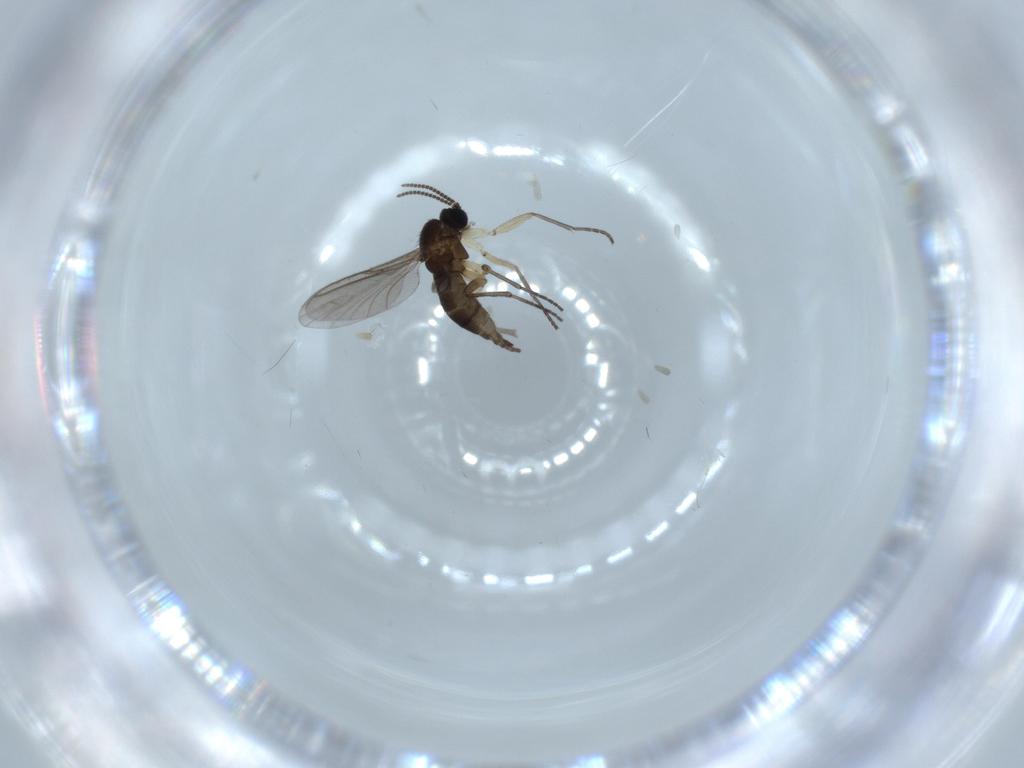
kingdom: Animalia
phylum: Arthropoda
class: Insecta
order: Diptera
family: Sciaridae
